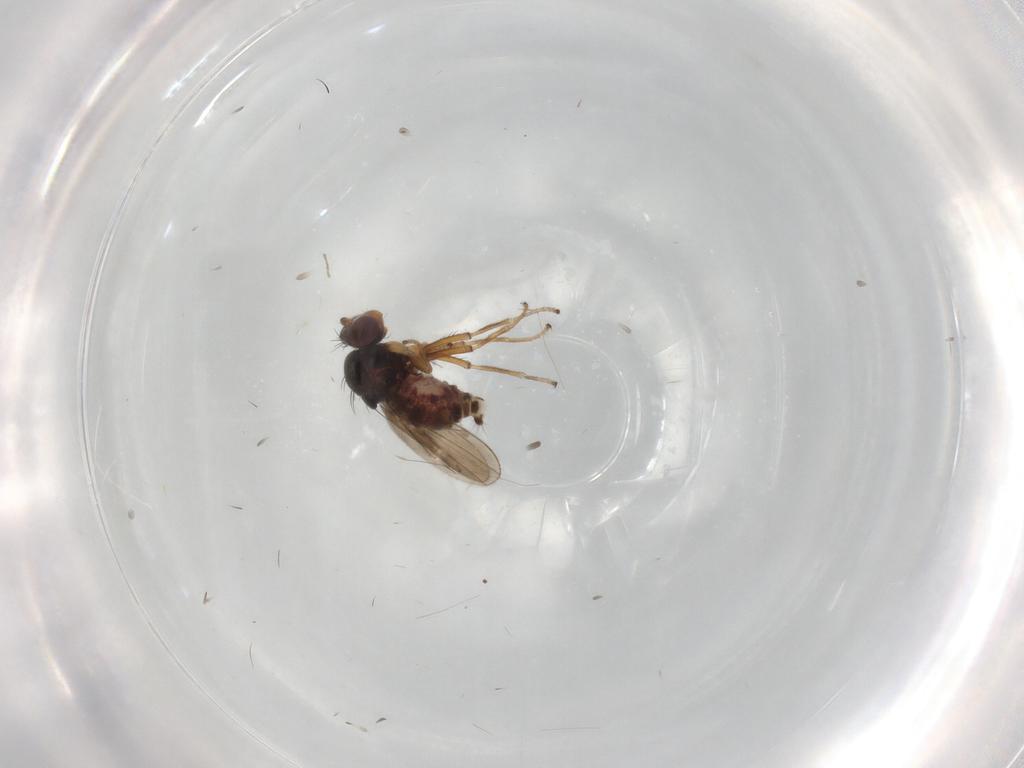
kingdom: Animalia
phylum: Arthropoda
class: Insecta
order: Diptera
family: Ephydridae
